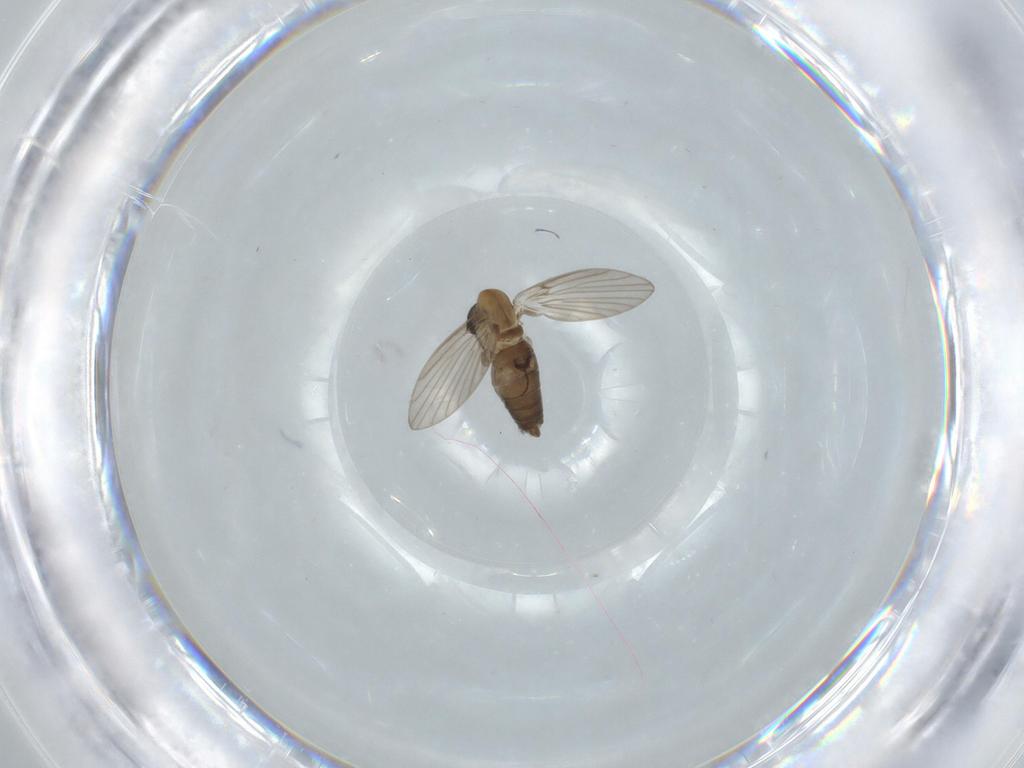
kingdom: Animalia
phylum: Arthropoda
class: Insecta
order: Diptera
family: Psychodidae
